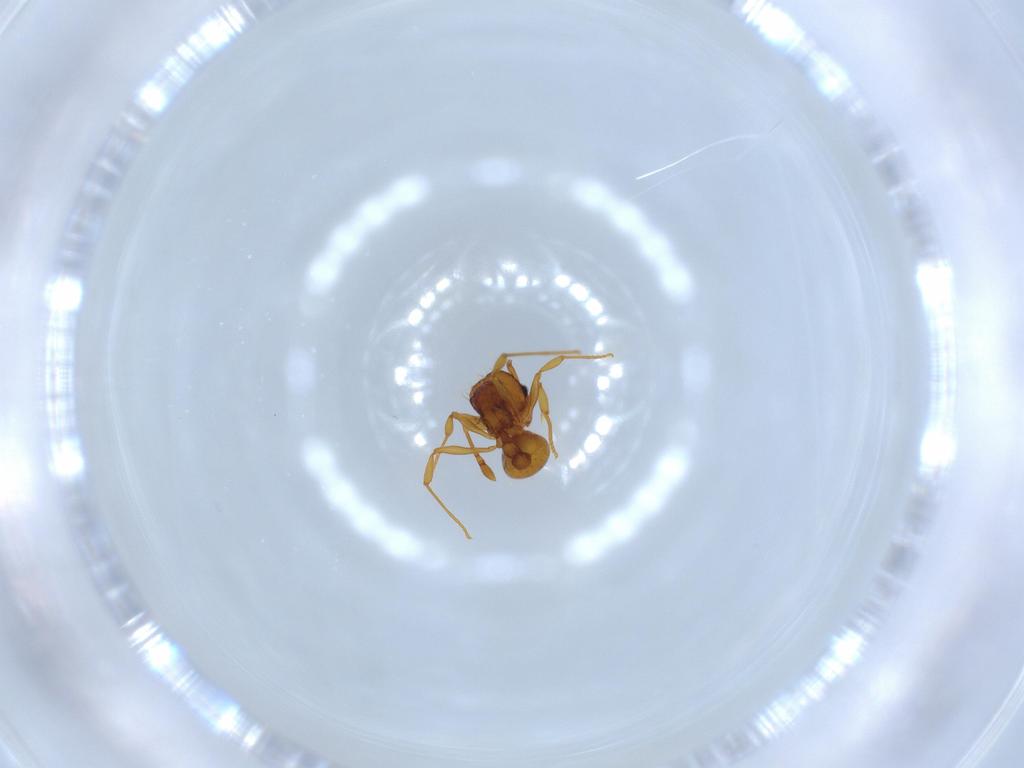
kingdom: Animalia
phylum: Arthropoda
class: Insecta
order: Hymenoptera
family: Formicidae
